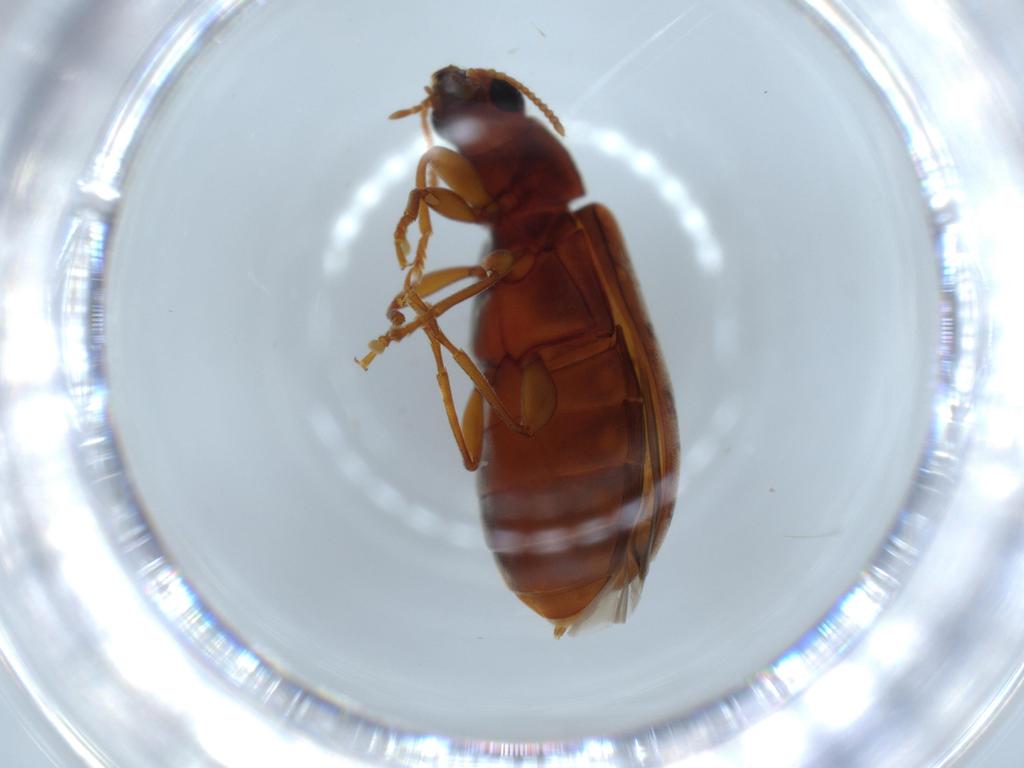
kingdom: Animalia
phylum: Arthropoda
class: Insecta
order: Coleoptera
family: Mycteridae
